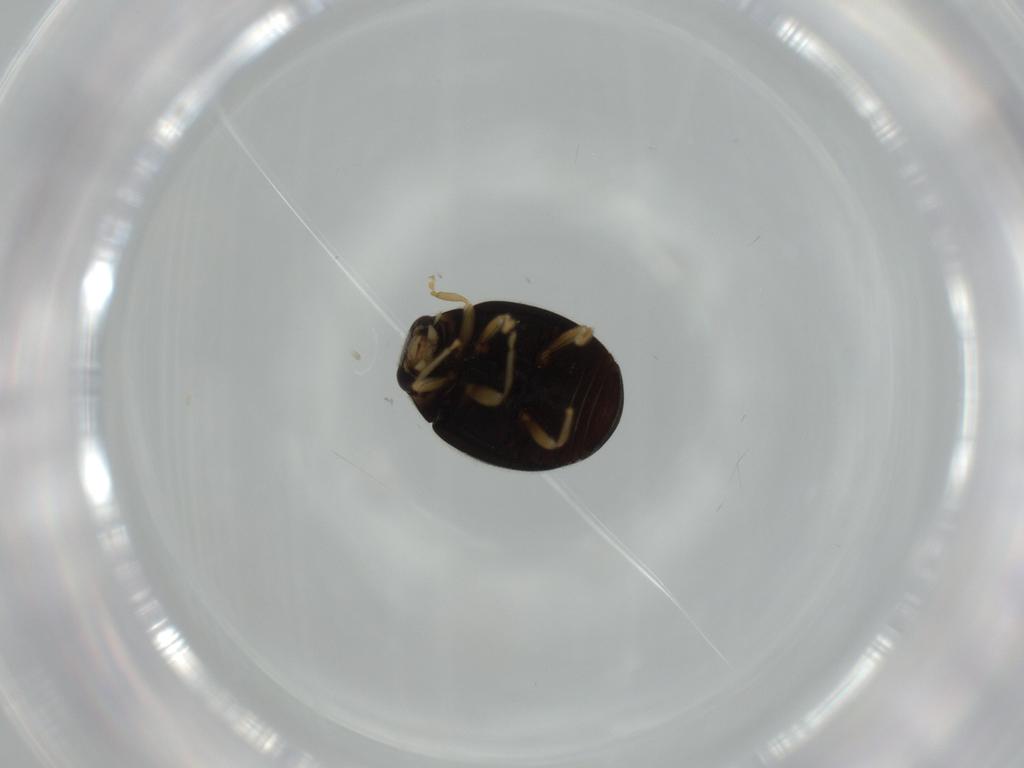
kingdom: Animalia
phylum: Arthropoda
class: Insecta
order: Coleoptera
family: Coccinellidae
